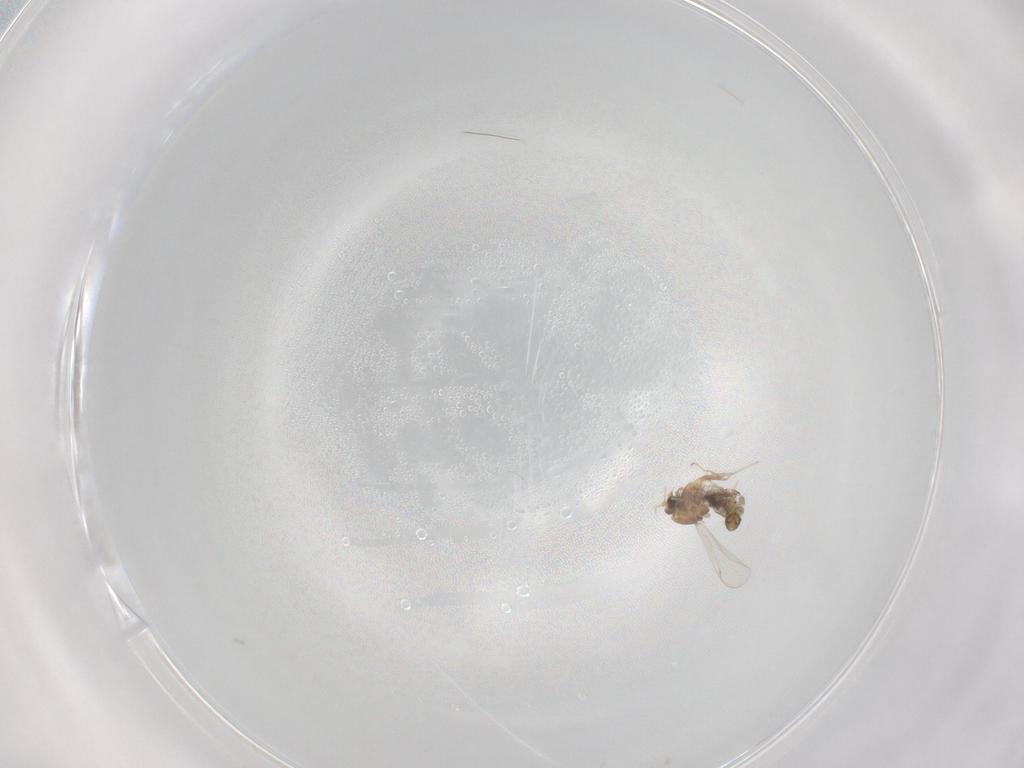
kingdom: Animalia
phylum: Arthropoda
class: Insecta
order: Diptera
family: Chironomidae
